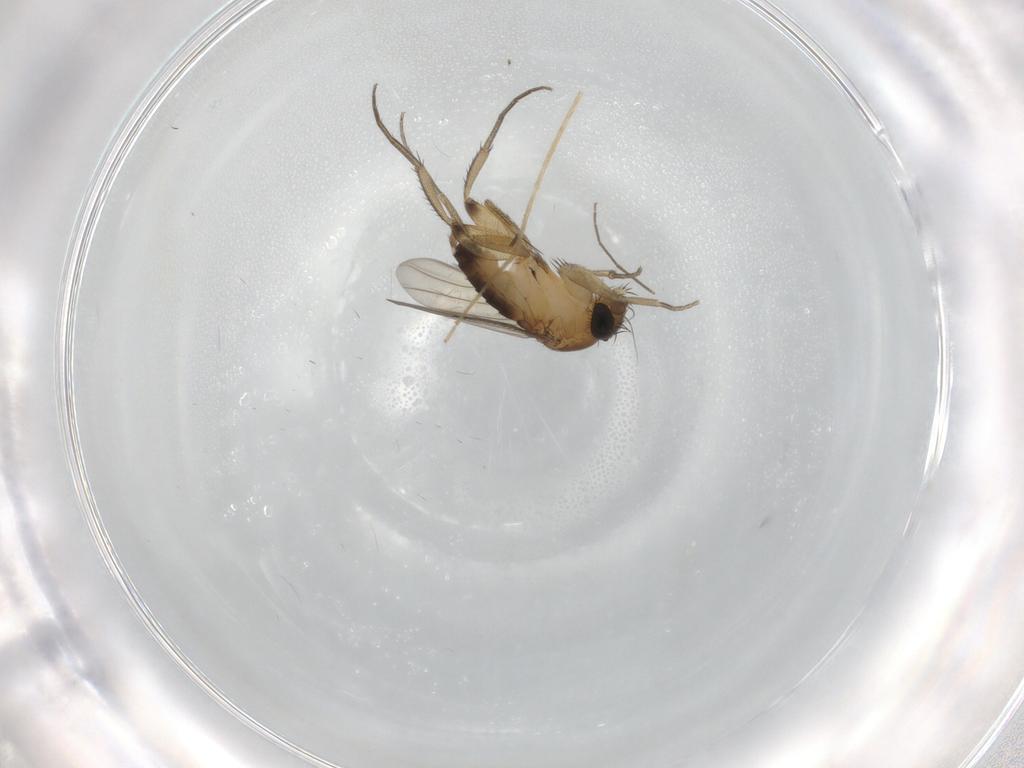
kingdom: Animalia
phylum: Arthropoda
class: Insecta
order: Diptera
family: Phoridae
